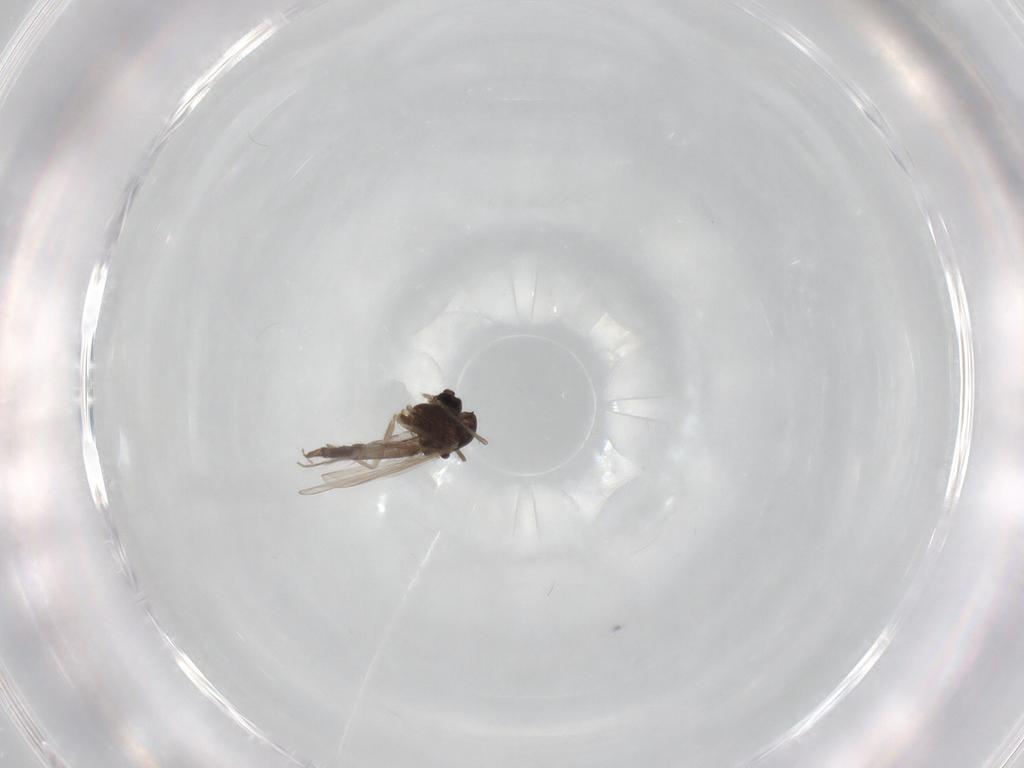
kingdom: Animalia
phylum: Arthropoda
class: Insecta
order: Diptera
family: Chironomidae
